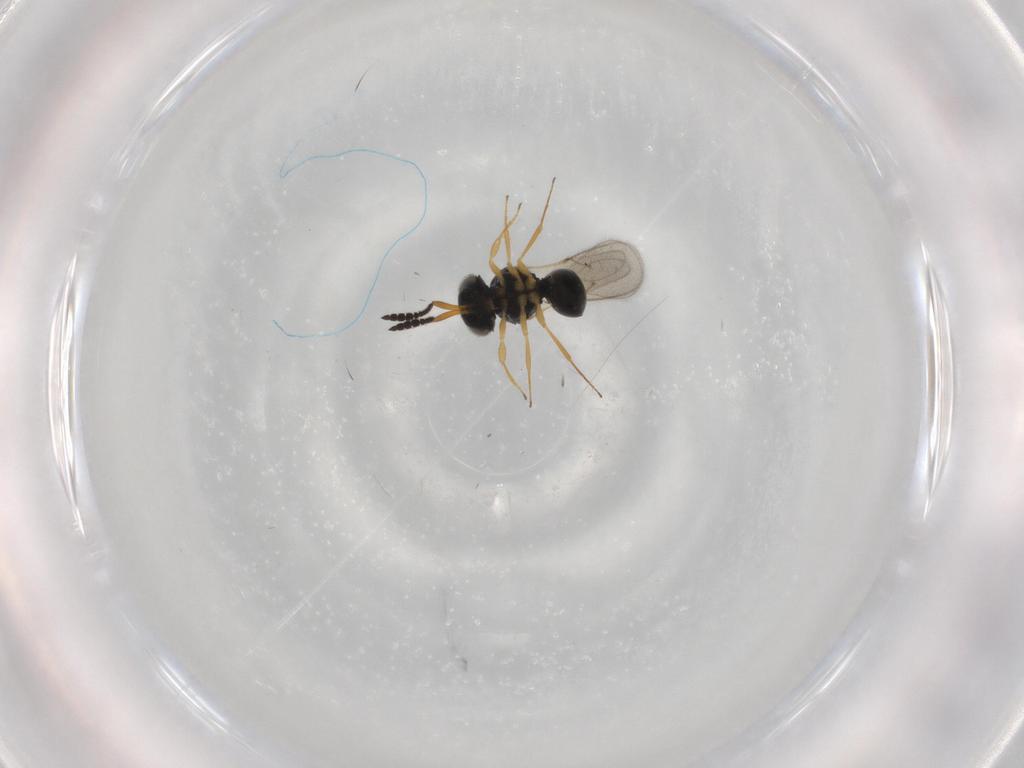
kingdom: Animalia
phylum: Arthropoda
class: Insecta
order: Hymenoptera
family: Scelionidae
